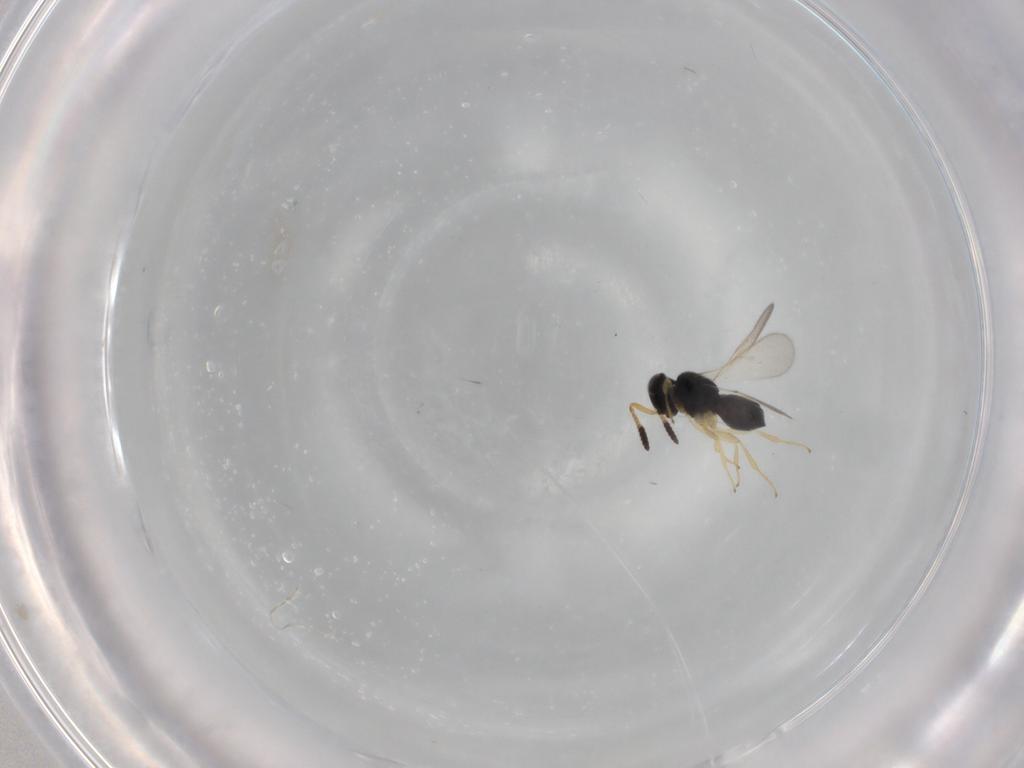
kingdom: Animalia
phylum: Arthropoda
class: Insecta
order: Hymenoptera
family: Scelionidae
